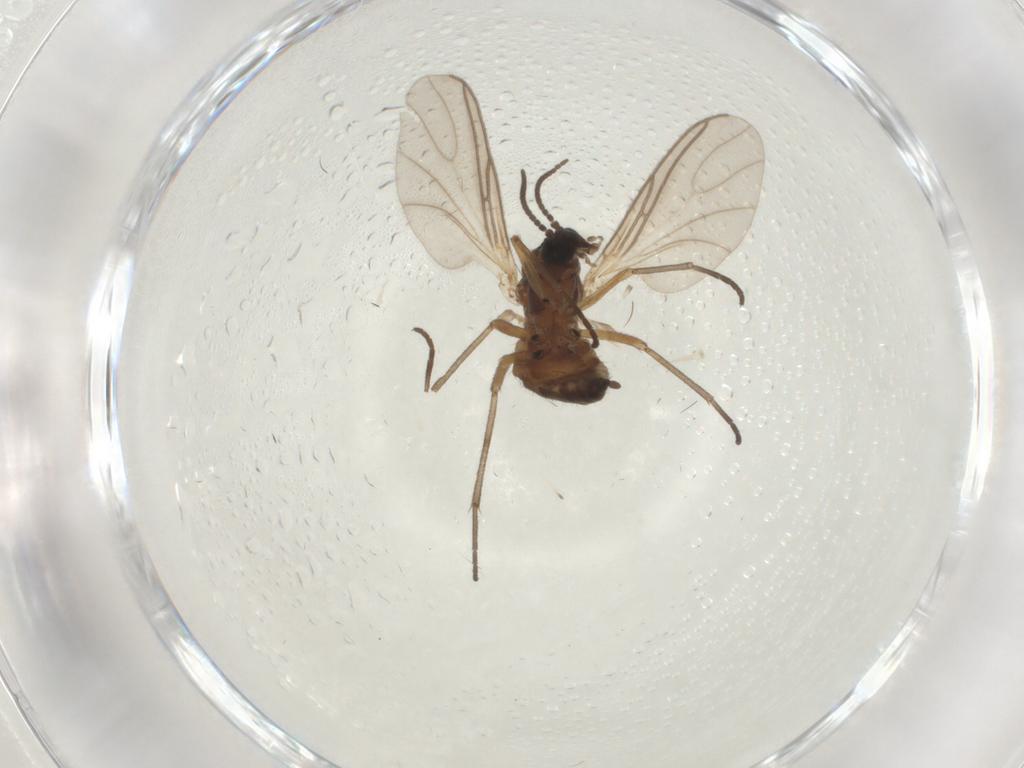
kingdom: Animalia
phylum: Arthropoda
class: Insecta
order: Diptera
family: Sciaridae
